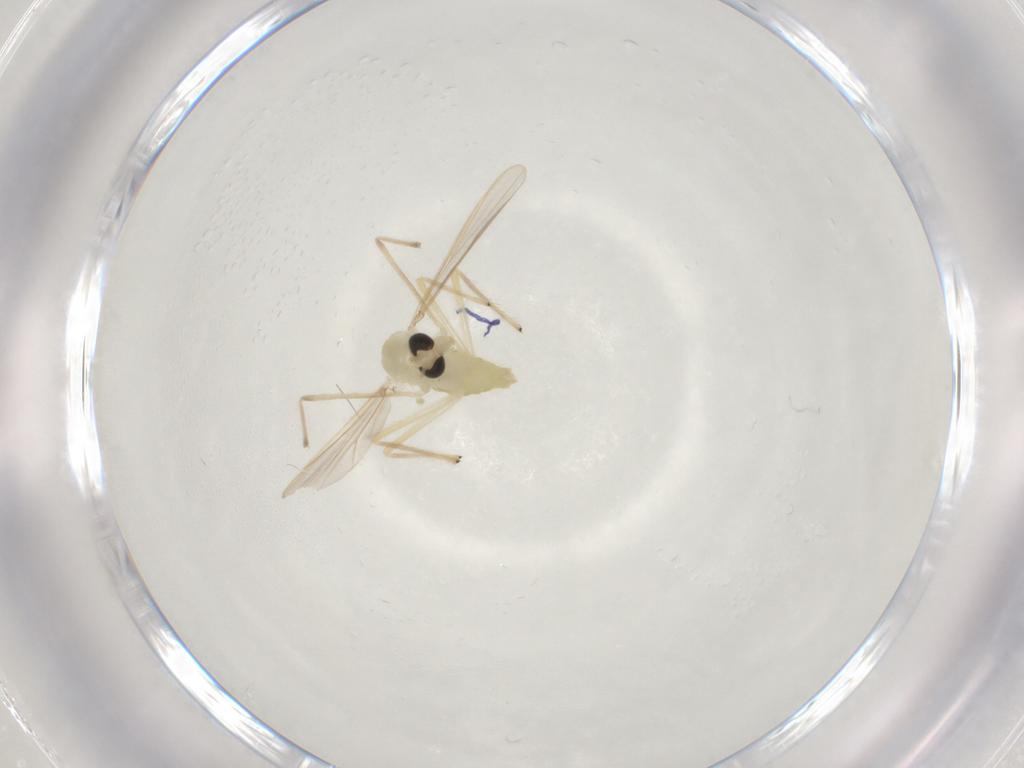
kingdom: Animalia
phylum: Arthropoda
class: Insecta
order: Diptera
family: Chironomidae
